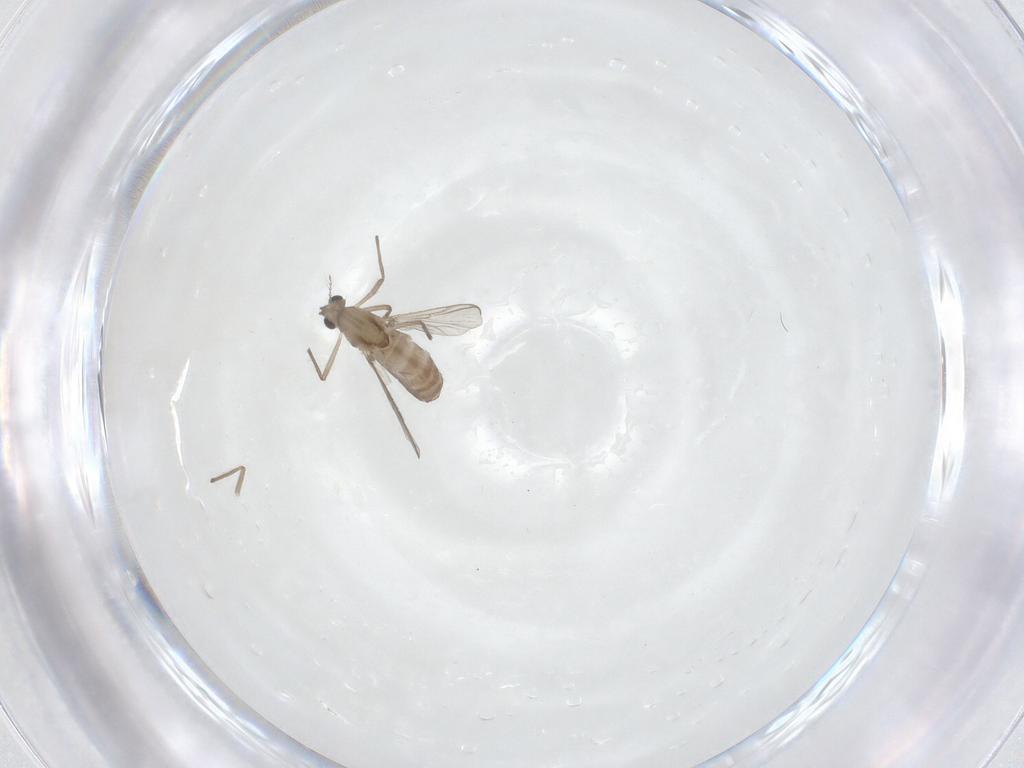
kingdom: Animalia
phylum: Arthropoda
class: Insecta
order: Diptera
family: Chironomidae
